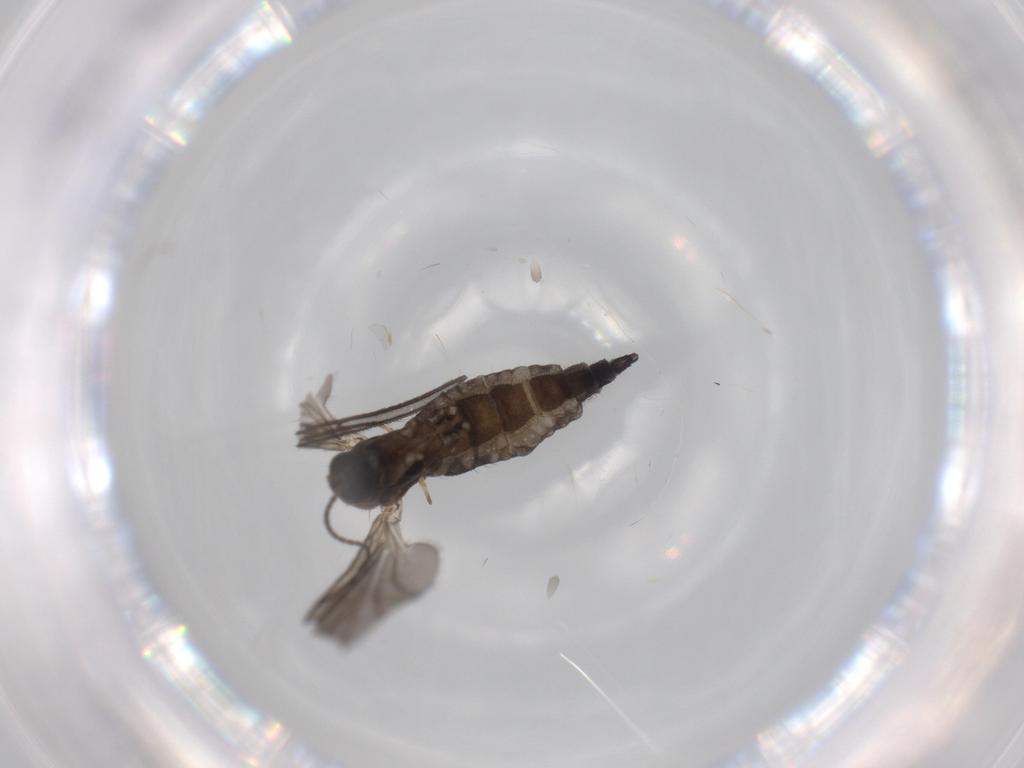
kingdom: Animalia
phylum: Arthropoda
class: Insecta
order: Diptera
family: Sciaridae
